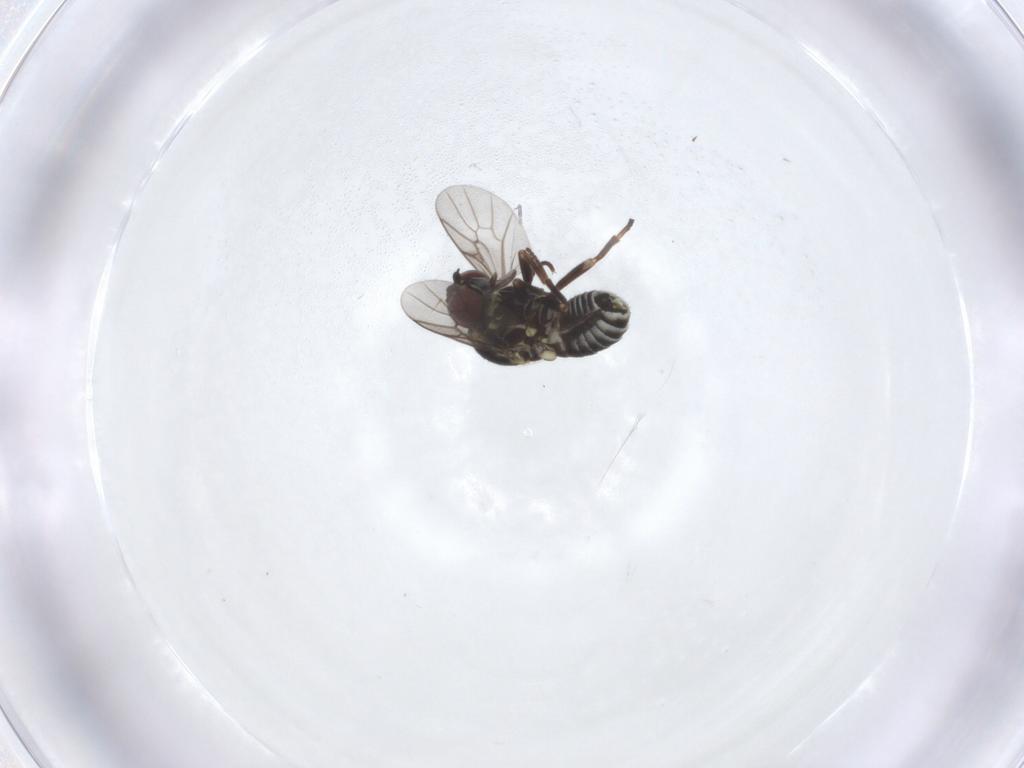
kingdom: Animalia
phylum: Arthropoda
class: Insecta
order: Diptera
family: Bombyliidae
